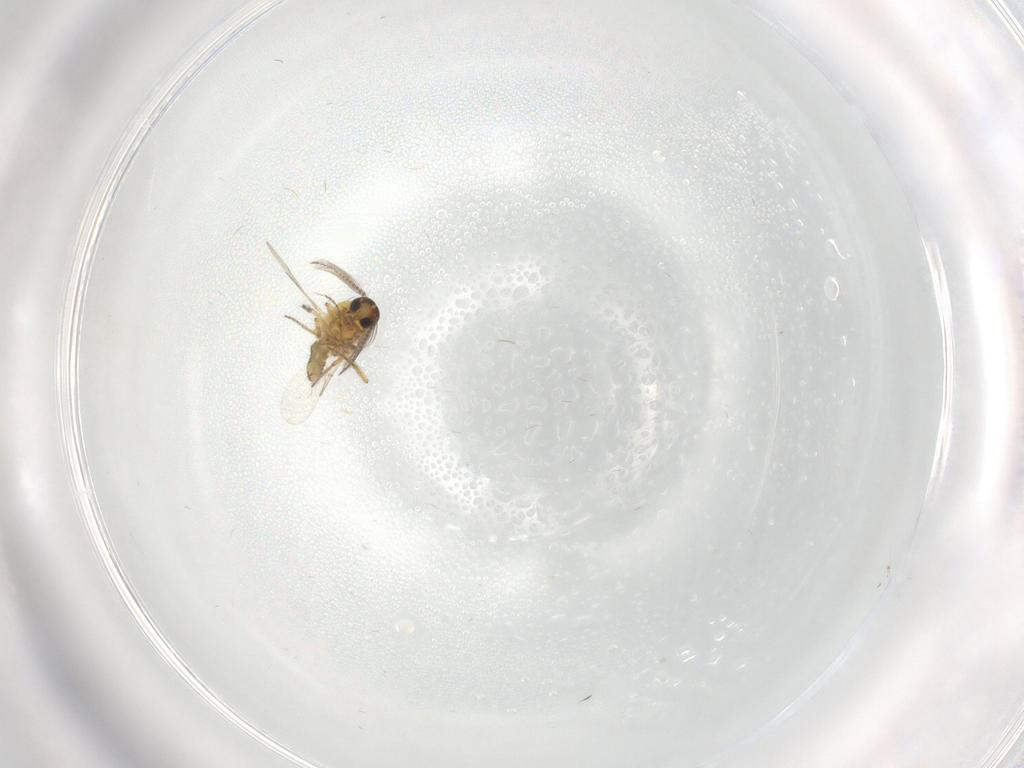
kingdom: Animalia
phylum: Arthropoda
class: Insecta
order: Diptera
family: Ceratopogonidae
